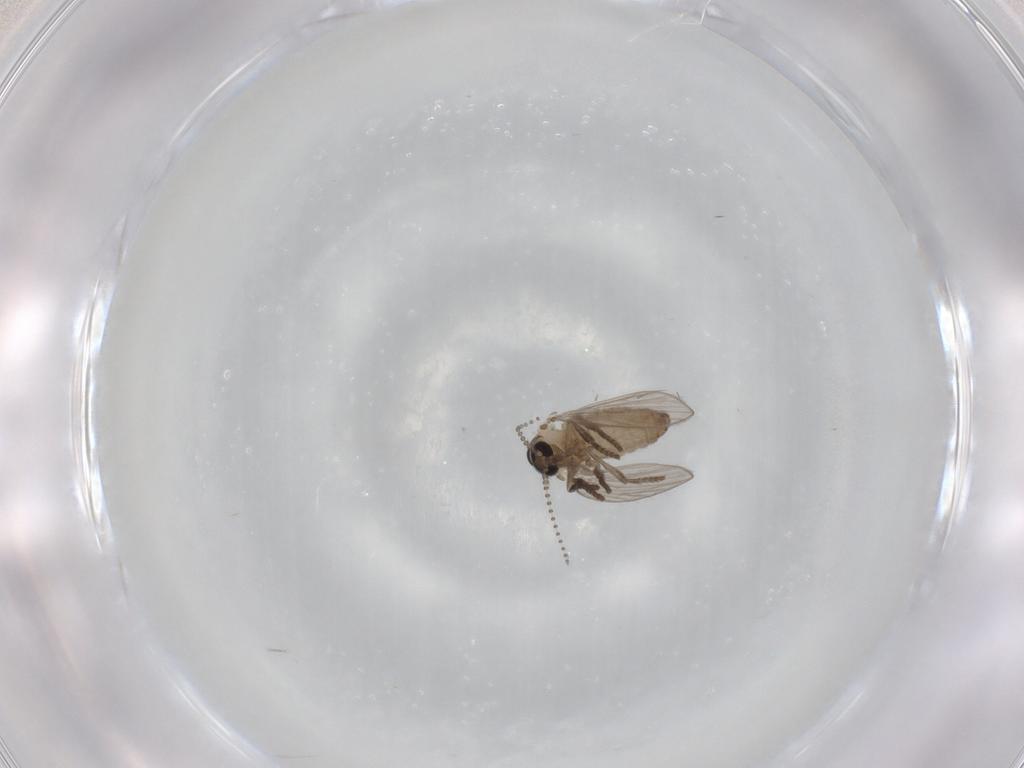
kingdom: Animalia
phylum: Arthropoda
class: Insecta
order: Diptera
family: Psychodidae
